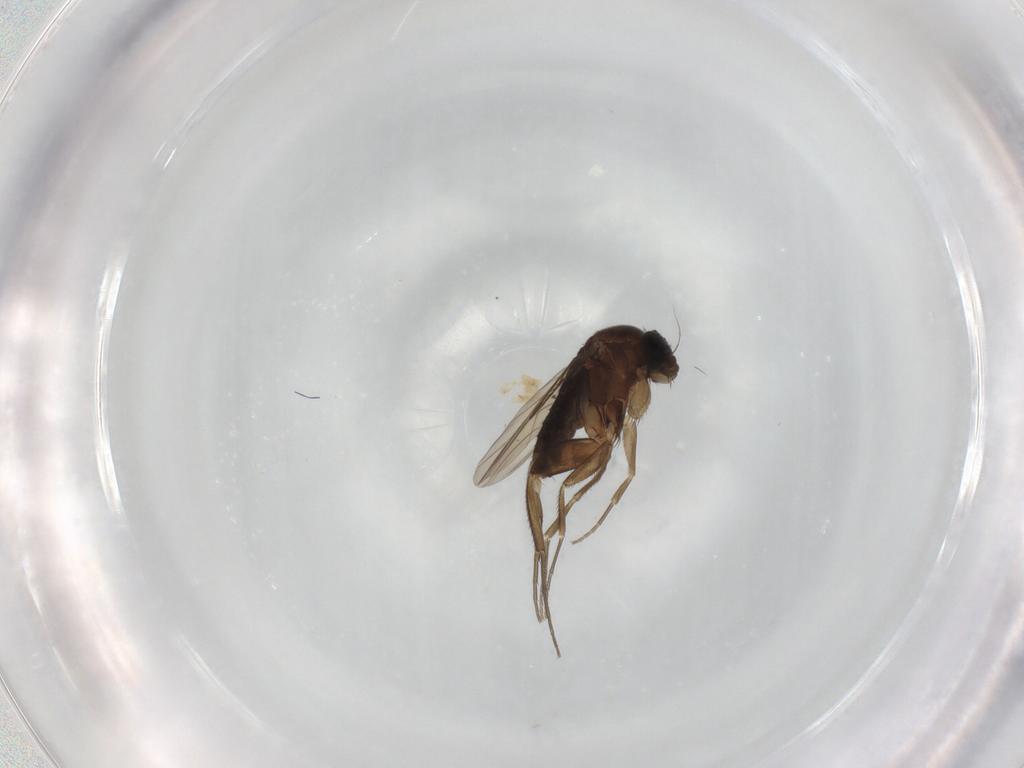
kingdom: Animalia
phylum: Arthropoda
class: Insecta
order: Diptera
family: Phoridae
